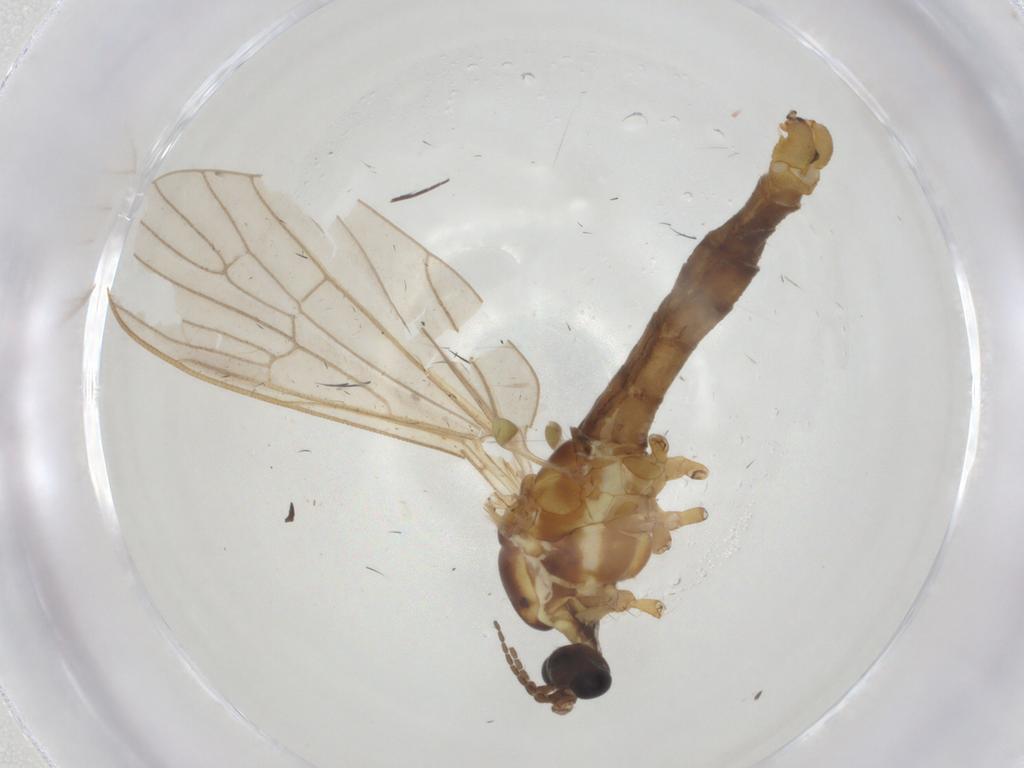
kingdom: Animalia
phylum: Arthropoda
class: Insecta
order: Diptera
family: Limoniidae
